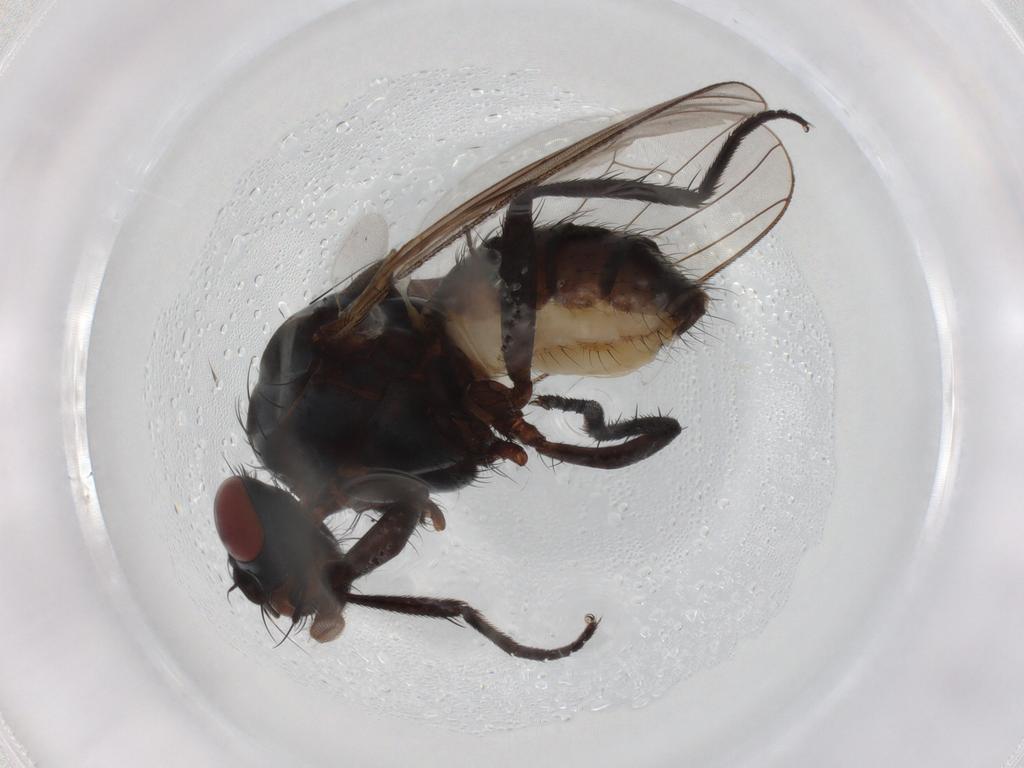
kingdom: Animalia
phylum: Arthropoda
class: Insecta
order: Diptera
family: Anthomyiidae
